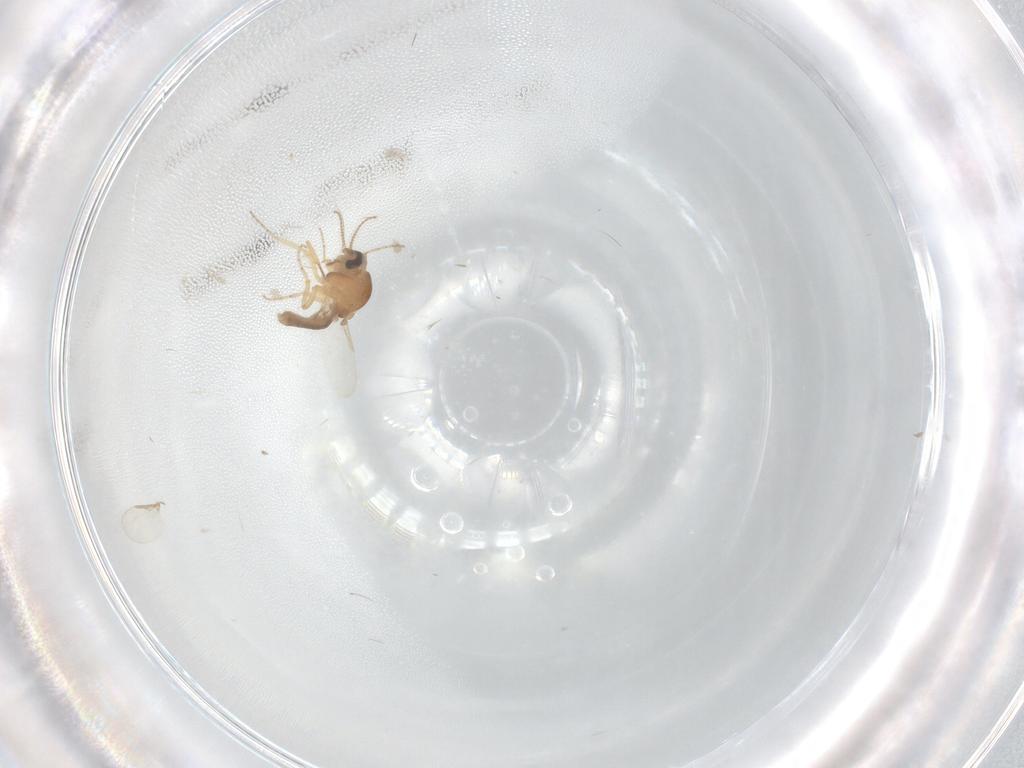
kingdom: Animalia
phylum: Arthropoda
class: Insecta
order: Diptera
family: Ceratopogonidae
